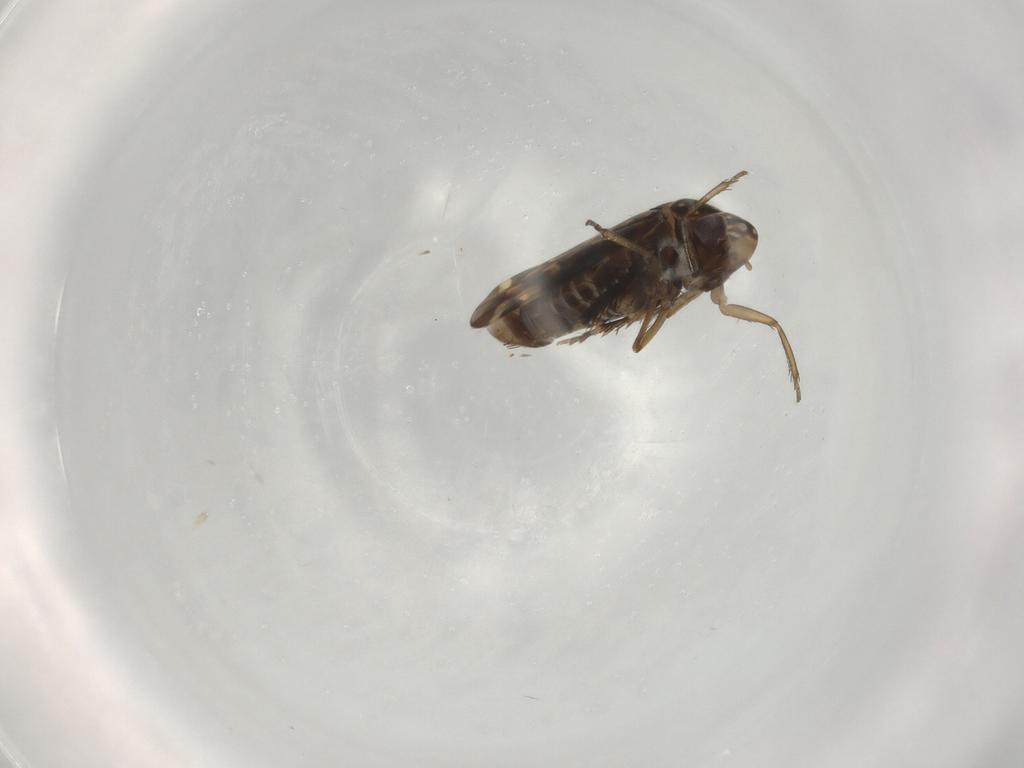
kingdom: Animalia
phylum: Arthropoda
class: Insecta
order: Hemiptera
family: Cicadellidae
